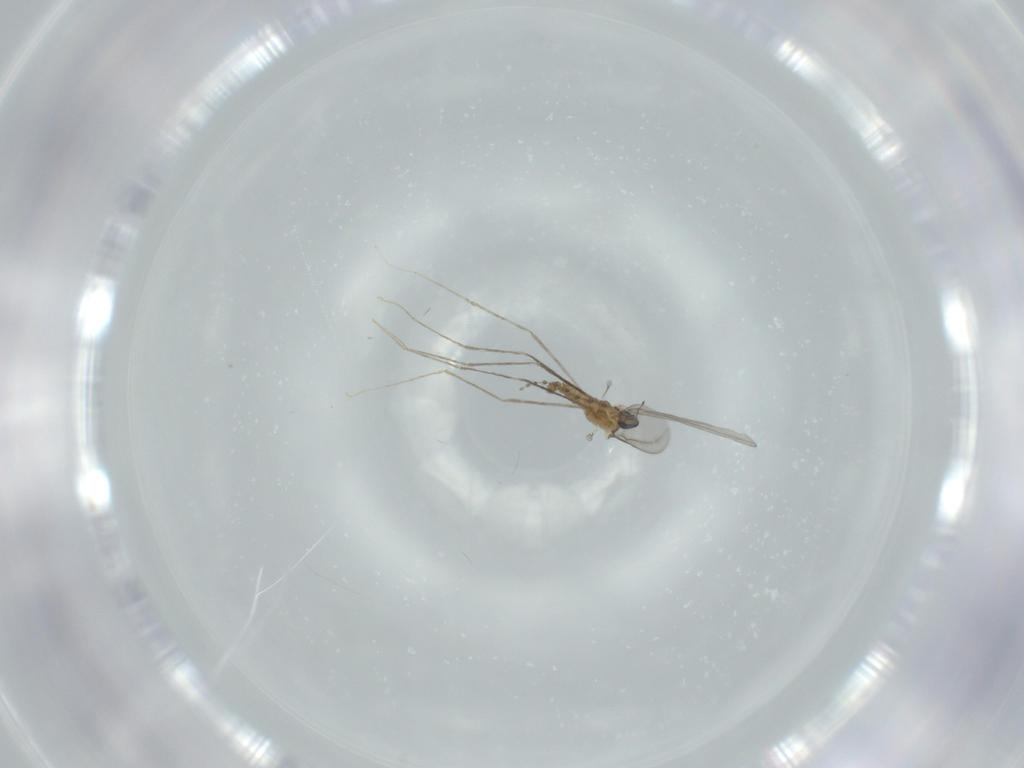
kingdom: Animalia
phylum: Arthropoda
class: Insecta
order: Diptera
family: Cecidomyiidae
